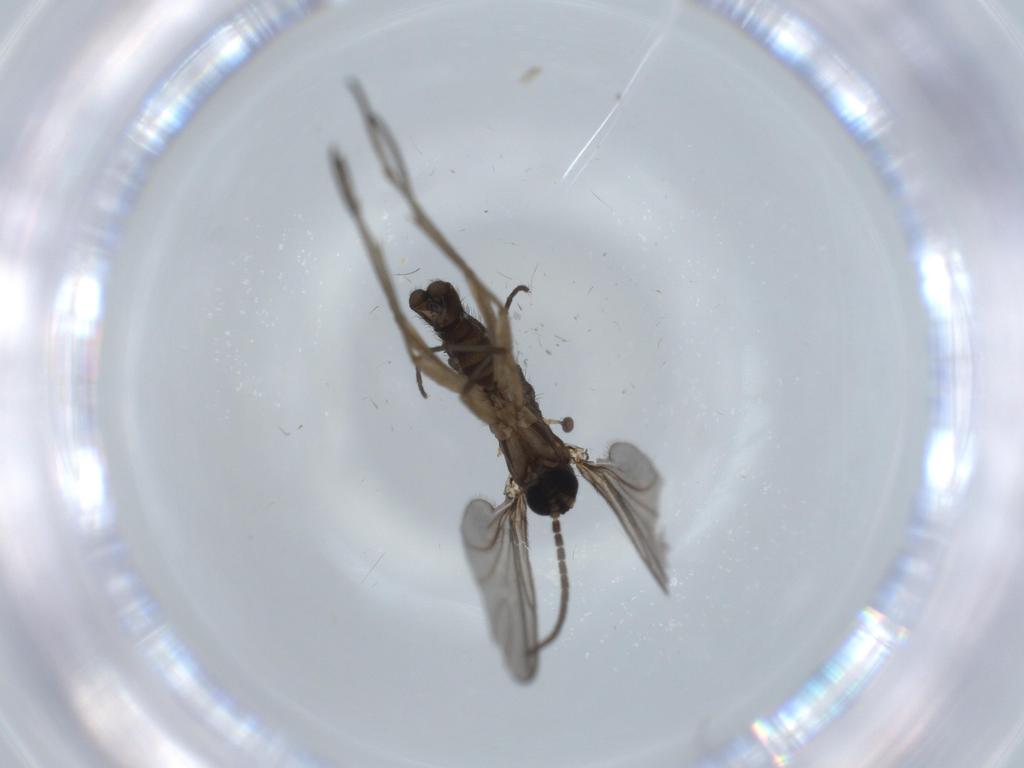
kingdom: Animalia
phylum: Arthropoda
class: Insecta
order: Diptera
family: Sciaridae
